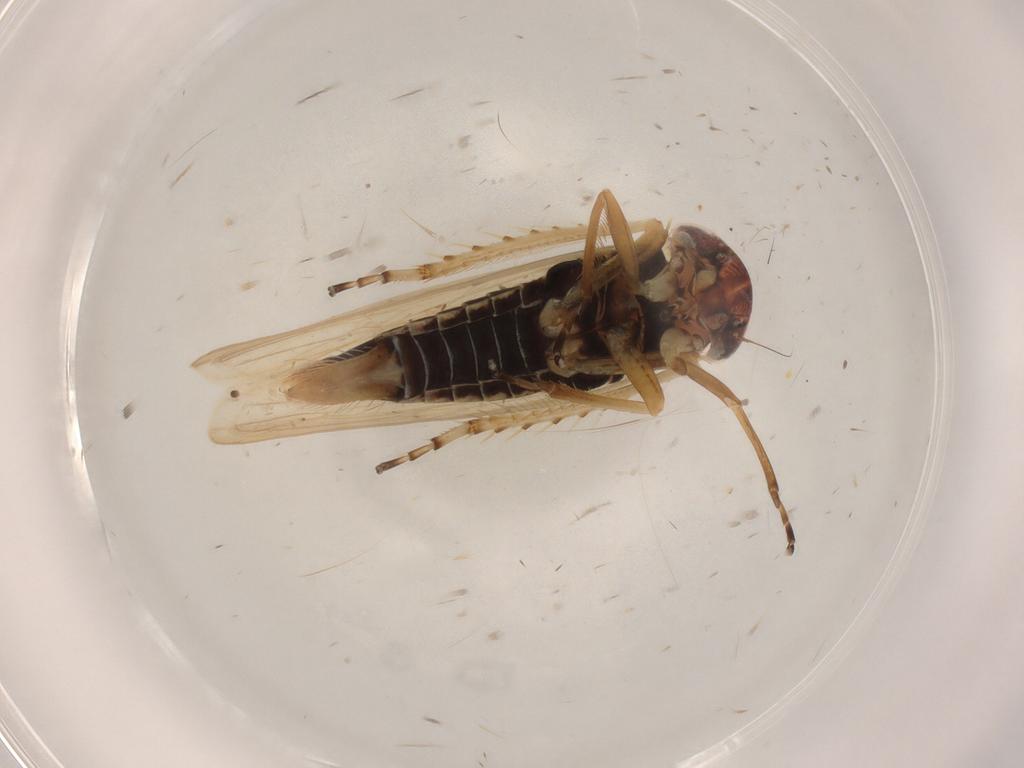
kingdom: Animalia
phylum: Arthropoda
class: Insecta
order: Hemiptera
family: Cicadellidae
